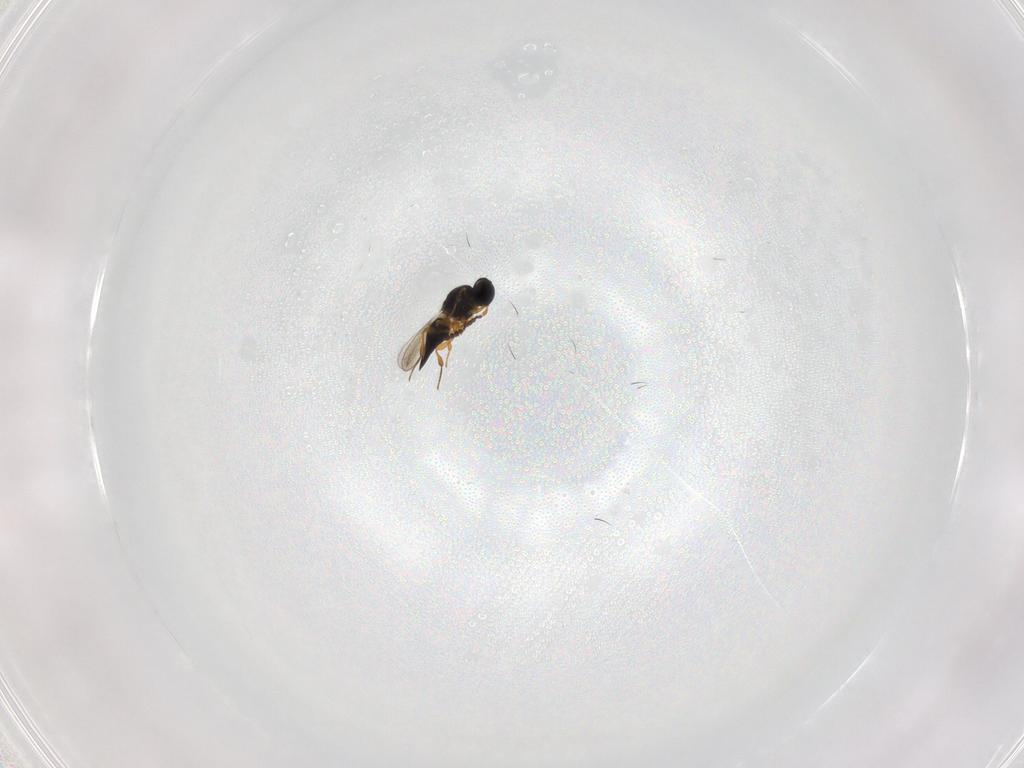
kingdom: Animalia
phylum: Arthropoda
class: Insecta
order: Hymenoptera
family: Platygastridae
